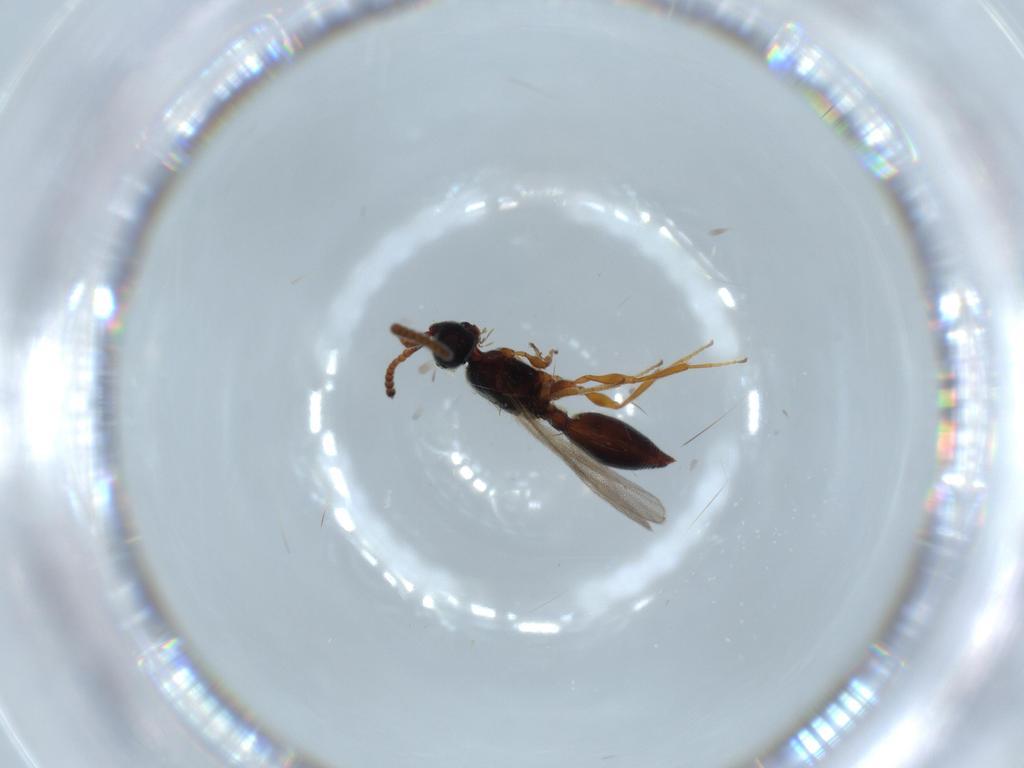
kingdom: Animalia
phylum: Arthropoda
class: Insecta
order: Hymenoptera
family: Diapriidae
